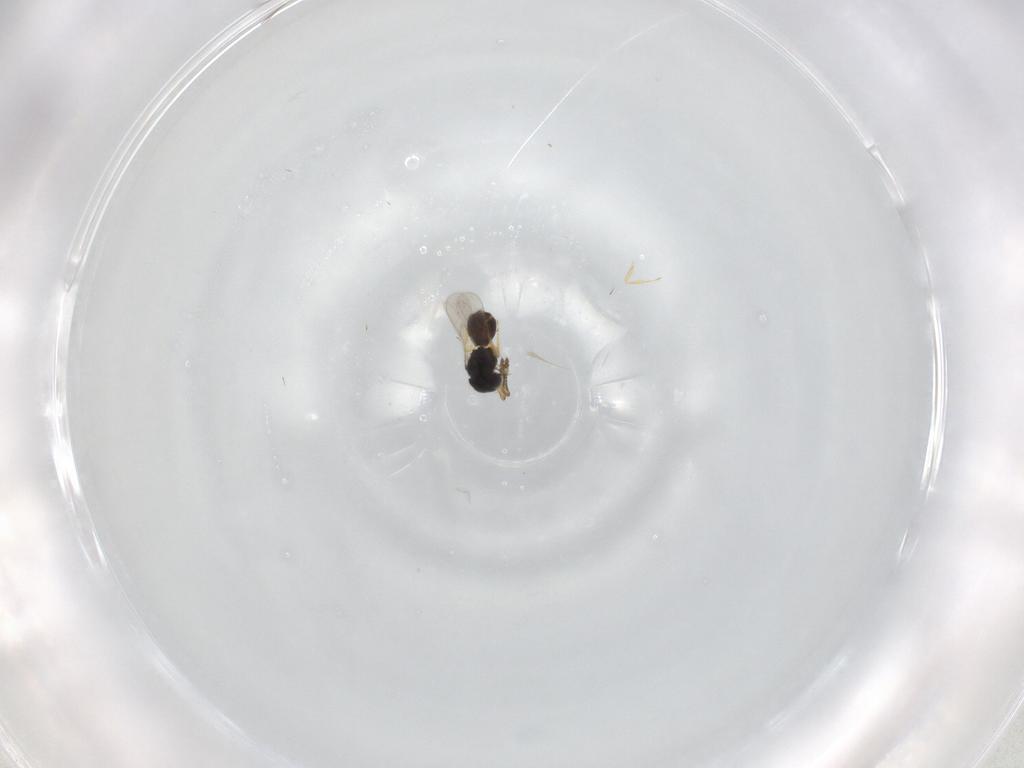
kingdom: Animalia
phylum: Arthropoda
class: Insecta
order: Hymenoptera
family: Scelionidae
